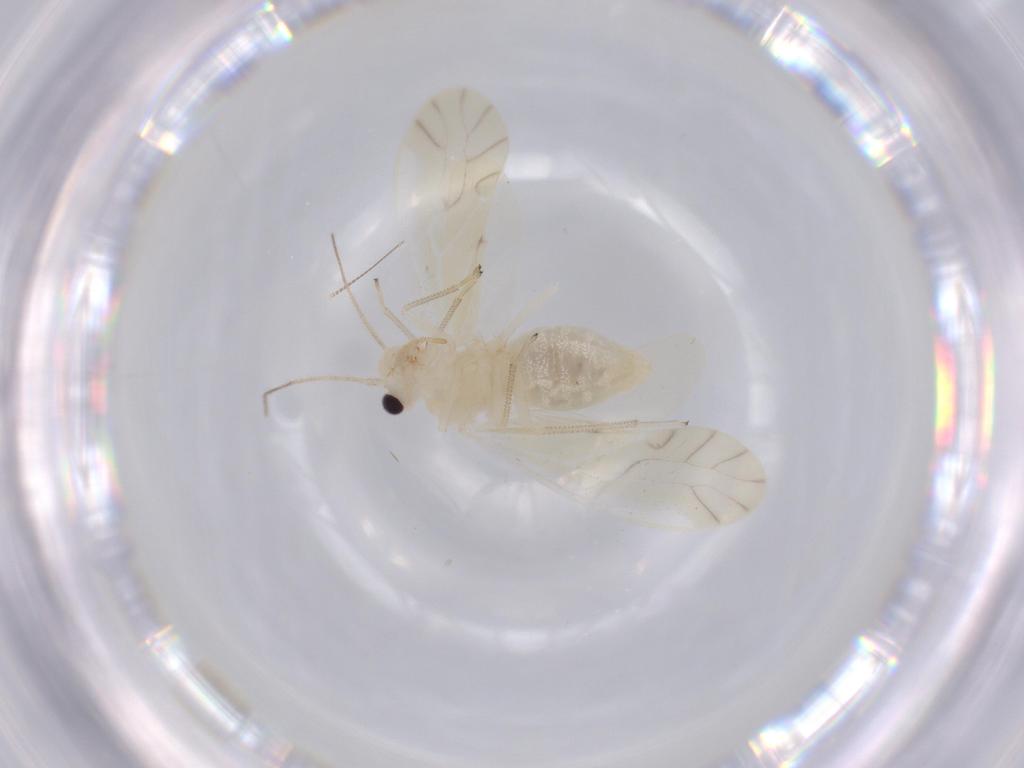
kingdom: Animalia
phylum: Arthropoda
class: Insecta
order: Psocodea
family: Caeciliusidae
